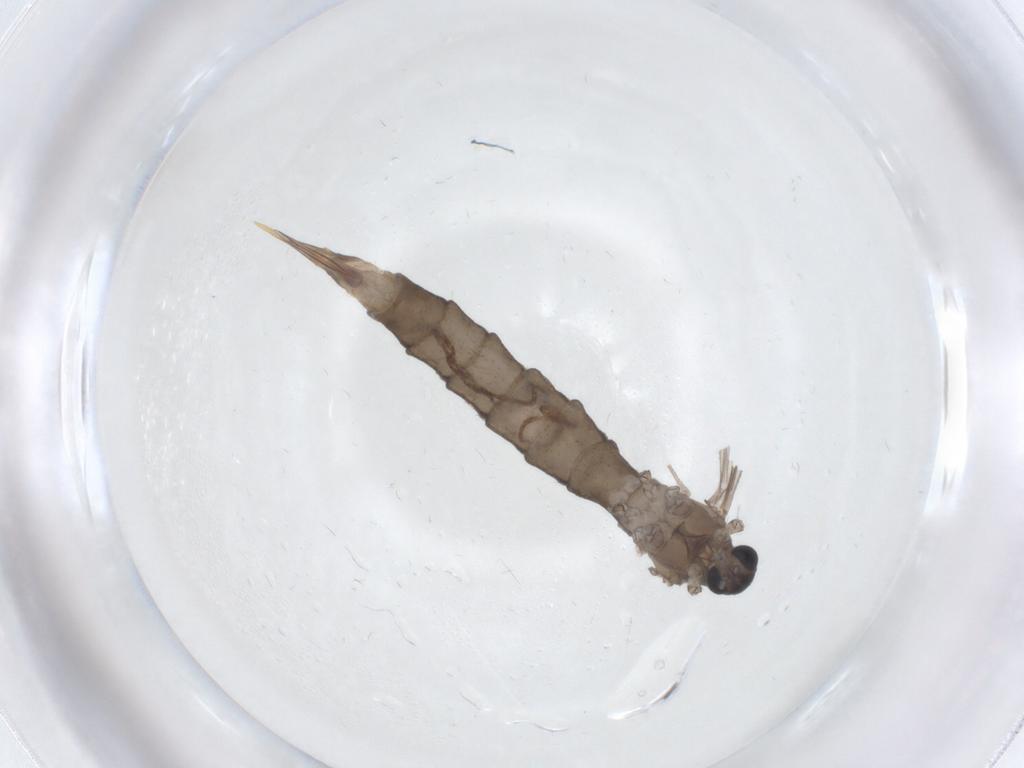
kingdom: Animalia
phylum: Arthropoda
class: Insecta
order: Diptera
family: Limoniidae
